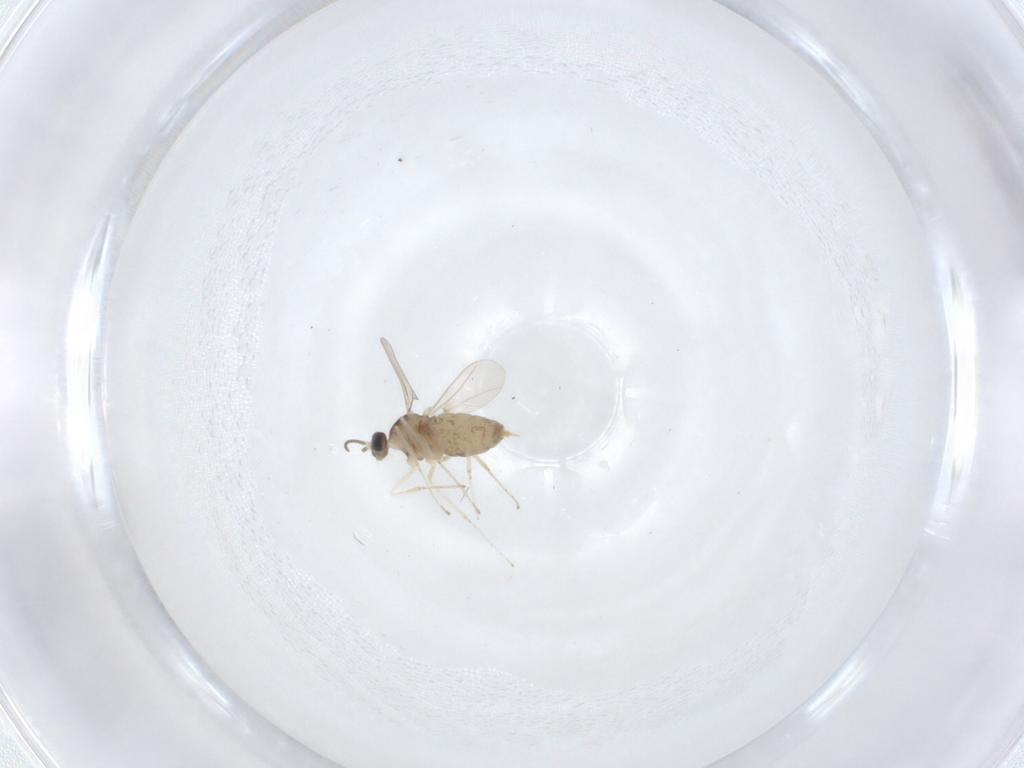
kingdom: Animalia
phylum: Arthropoda
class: Insecta
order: Diptera
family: Cecidomyiidae
